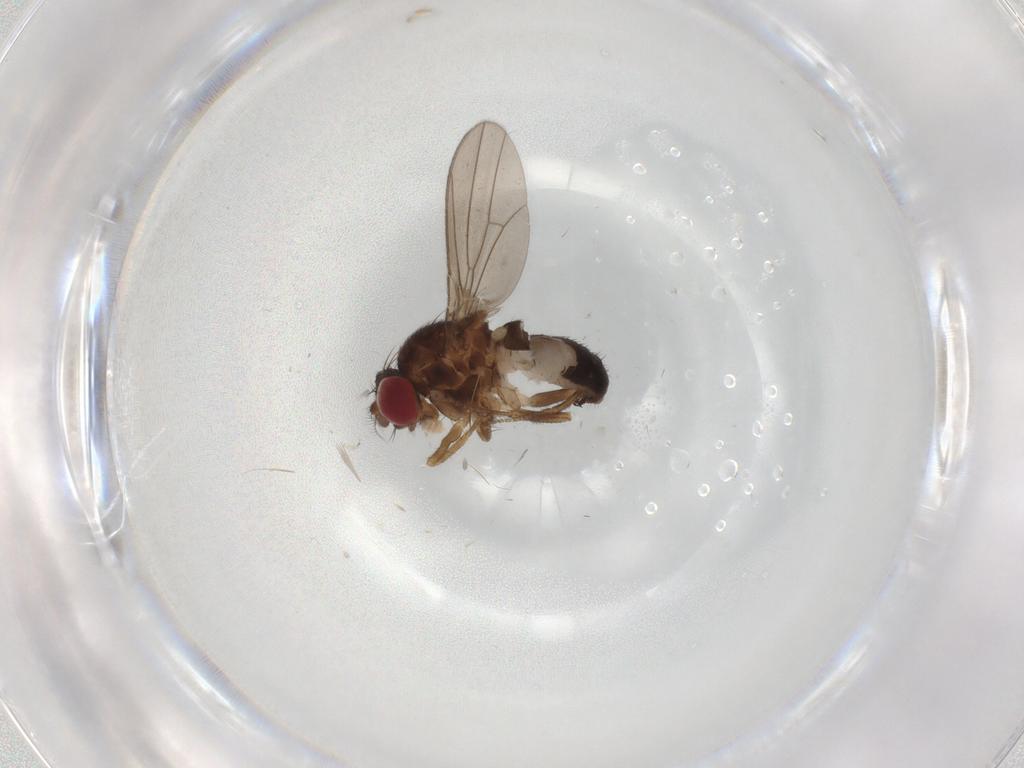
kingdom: Animalia
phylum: Arthropoda
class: Insecta
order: Diptera
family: Drosophilidae
